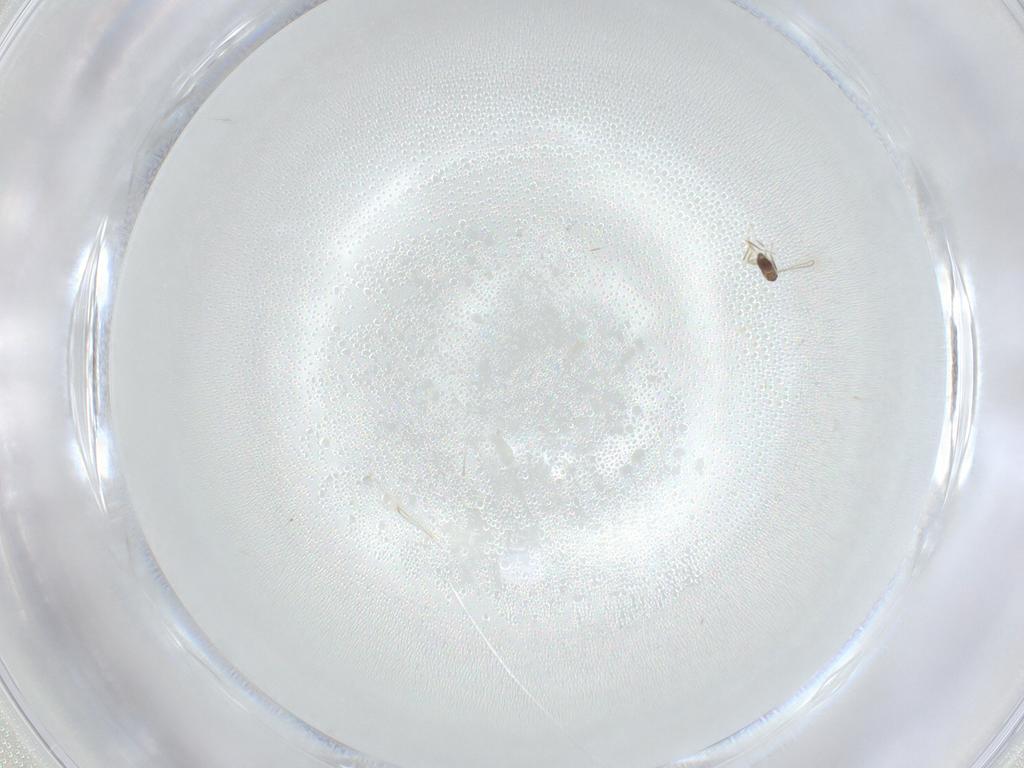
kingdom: Animalia
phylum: Arthropoda
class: Insecta
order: Hymenoptera
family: Mymaridae
